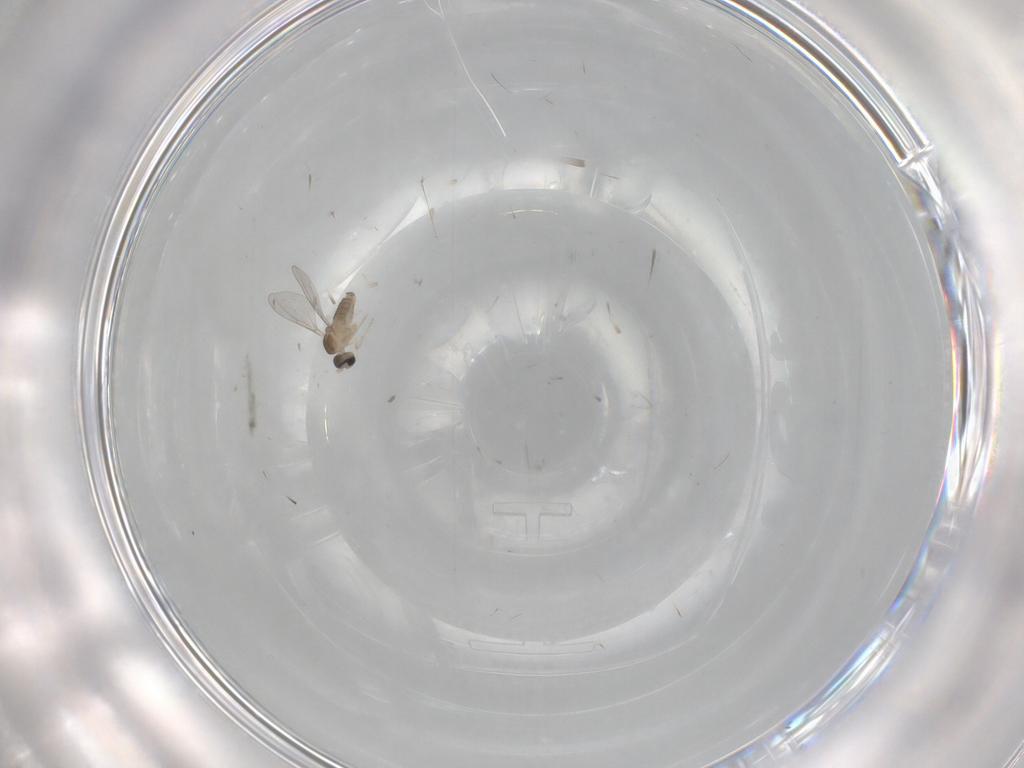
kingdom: Animalia
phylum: Arthropoda
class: Insecta
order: Diptera
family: Cecidomyiidae
